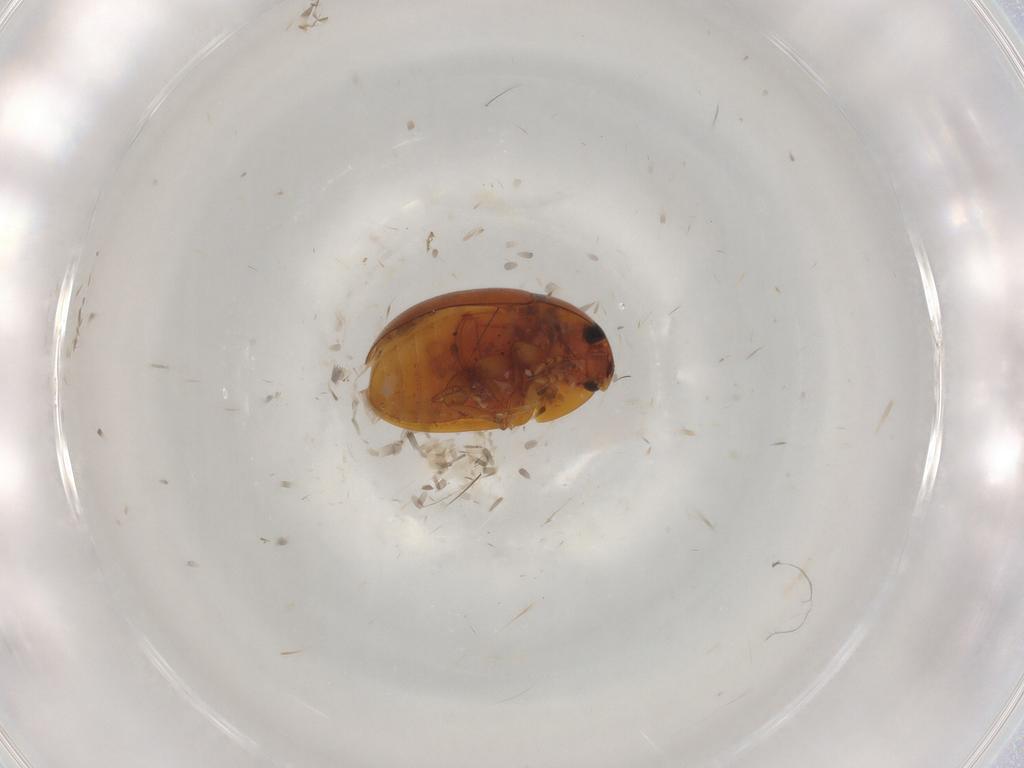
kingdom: Animalia
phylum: Arthropoda
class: Insecta
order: Coleoptera
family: Phalacridae
